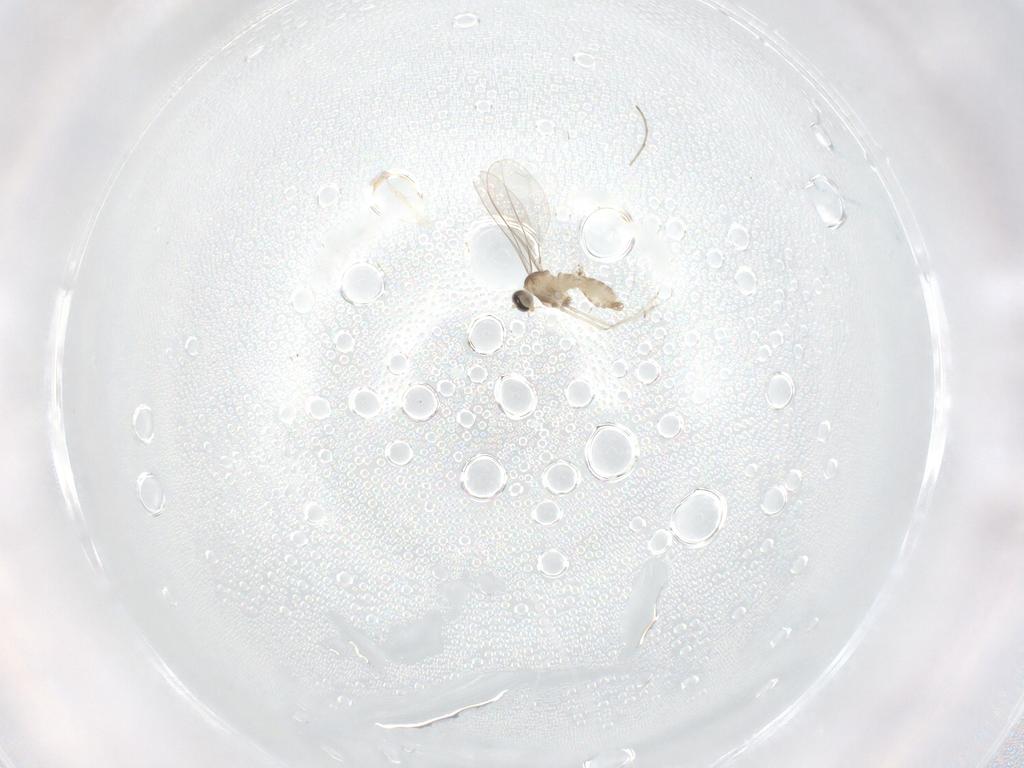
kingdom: Animalia
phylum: Arthropoda
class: Insecta
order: Diptera
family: Chironomidae
